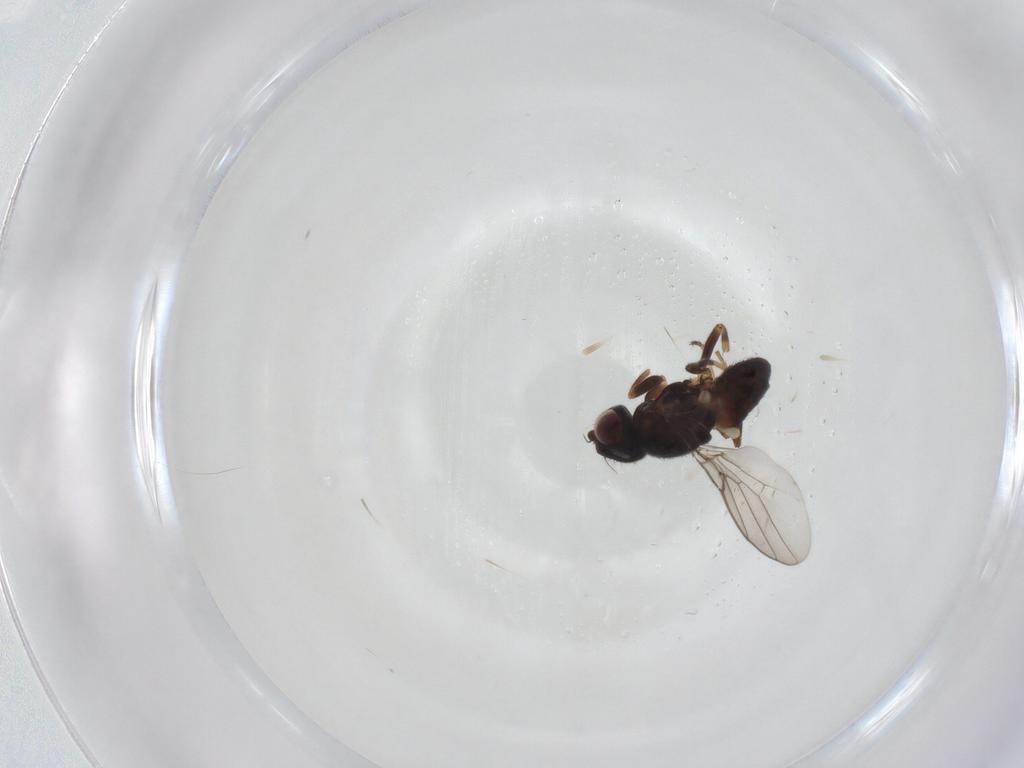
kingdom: Animalia
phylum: Arthropoda
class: Insecta
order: Diptera
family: Chloropidae
